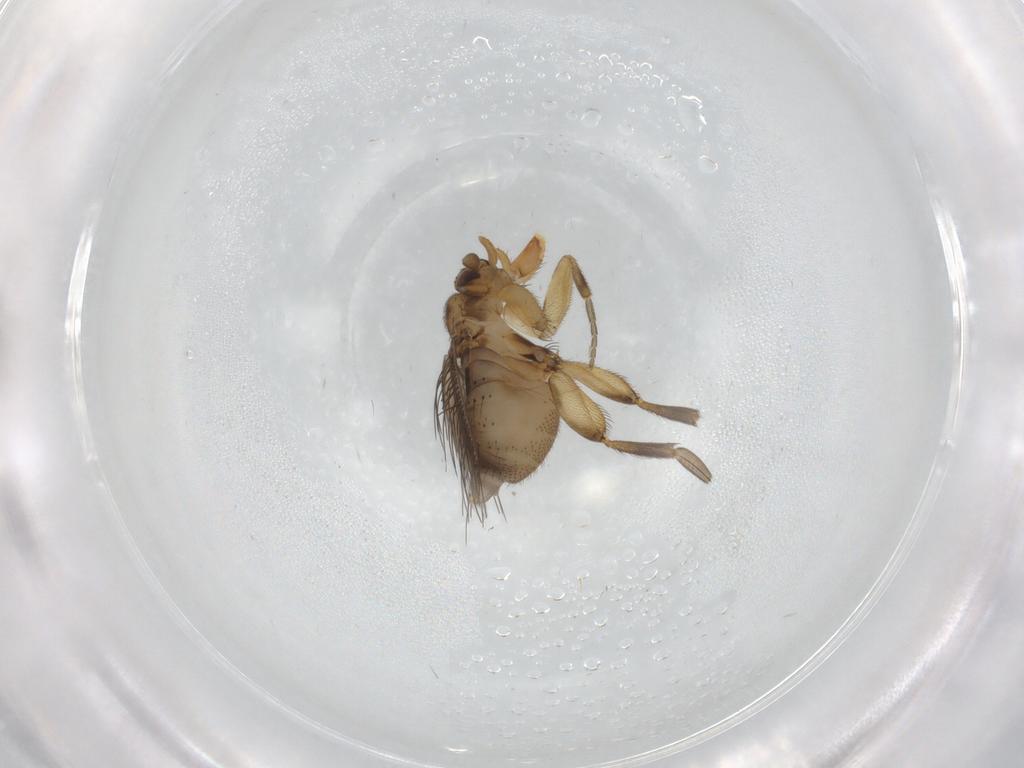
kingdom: Animalia
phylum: Arthropoda
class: Insecta
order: Diptera
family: Phoridae
